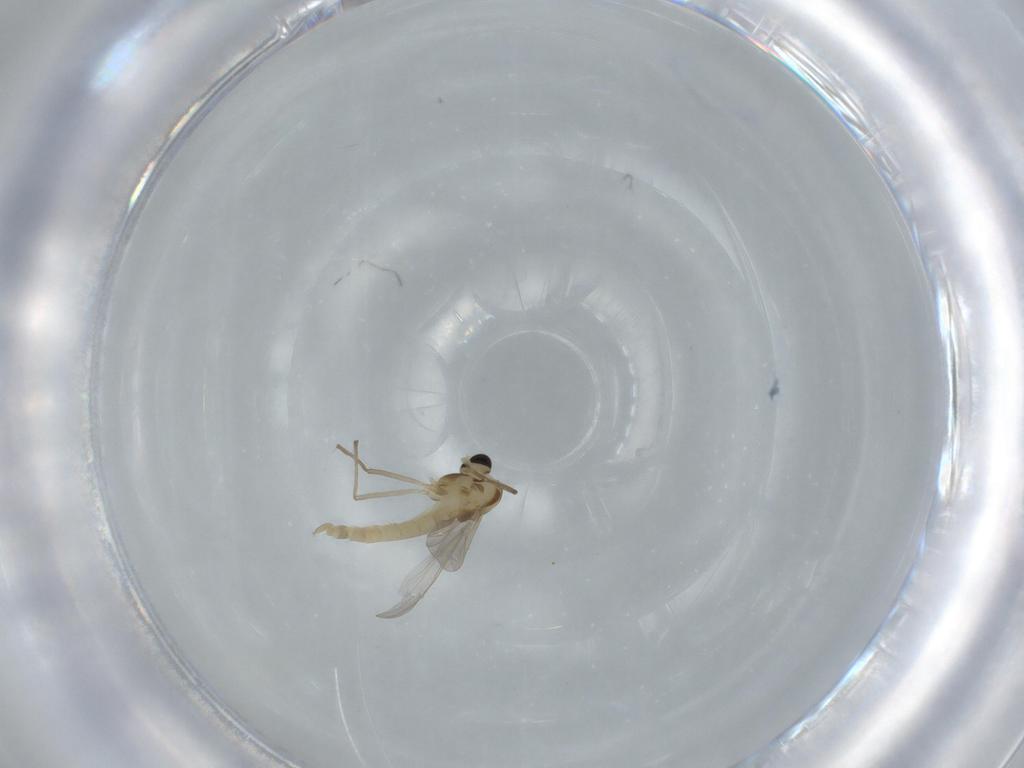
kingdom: Animalia
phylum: Arthropoda
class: Insecta
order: Diptera
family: Chironomidae
